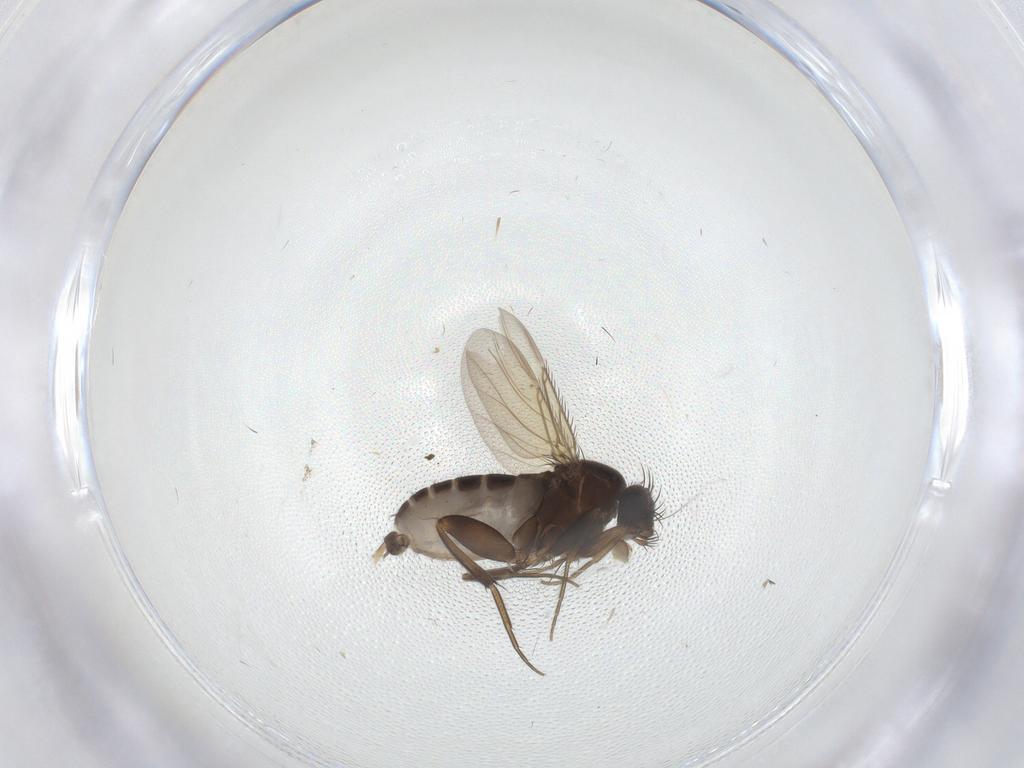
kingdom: Animalia
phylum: Arthropoda
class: Insecta
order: Diptera
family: Phoridae
